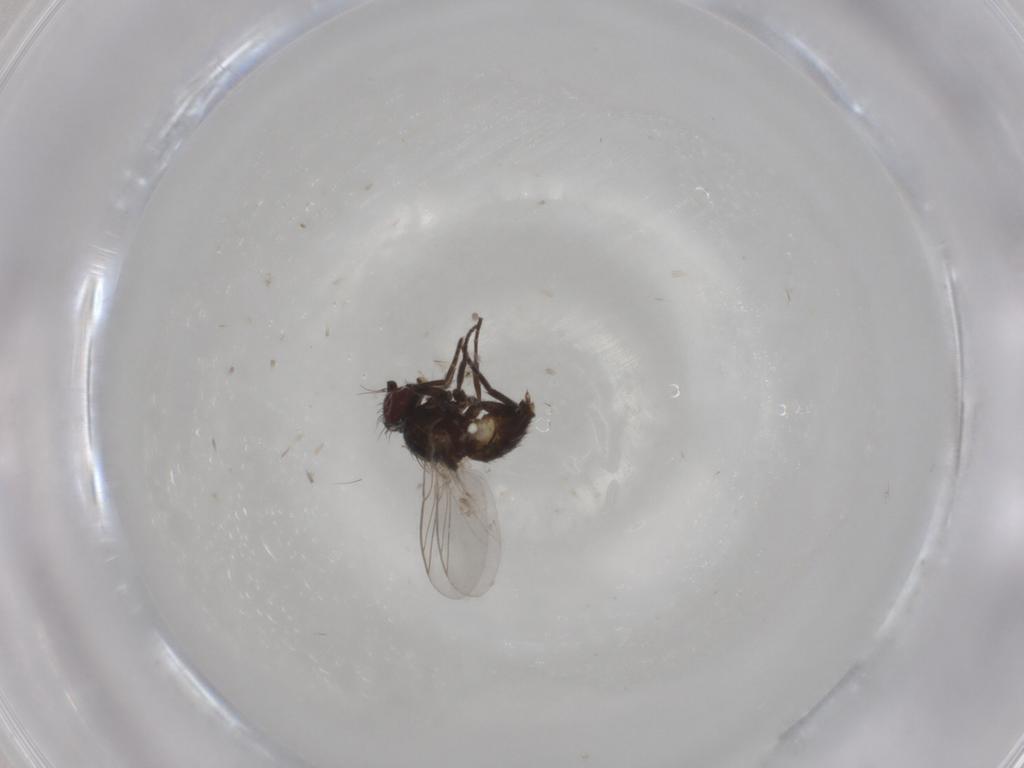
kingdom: Animalia
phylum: Arthropoda
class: Insecta
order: Diptera
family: Dolichopodidae
